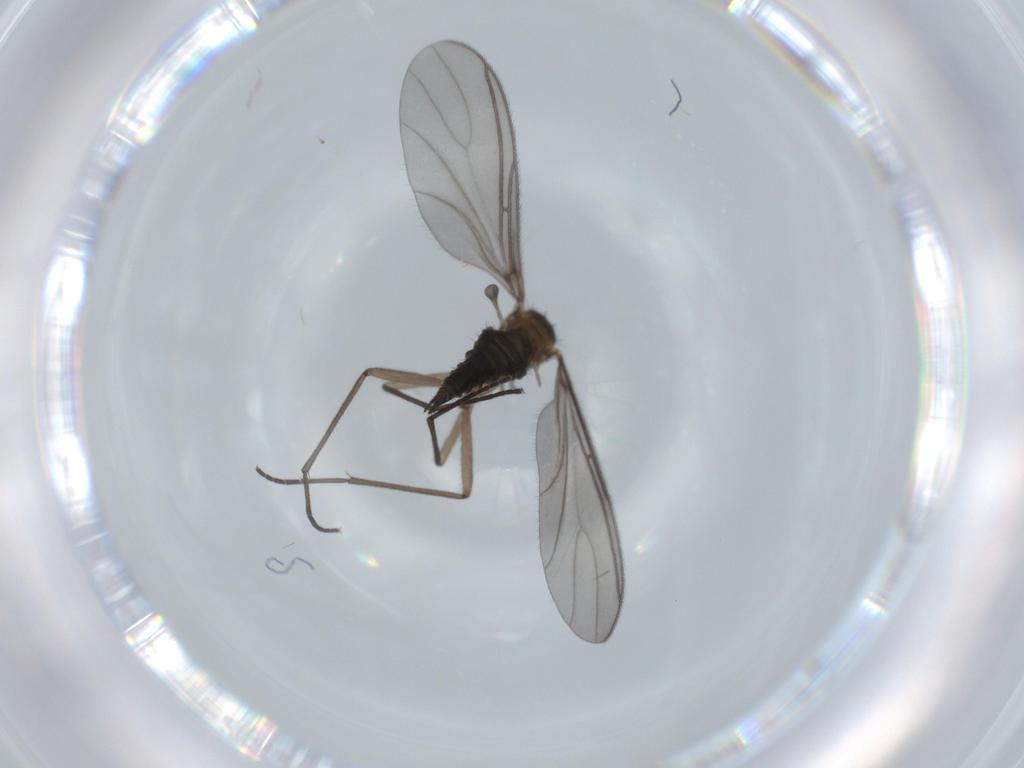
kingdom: Animalia
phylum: Arthropoda
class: Insecta
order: Diptera
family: Sciaridae
